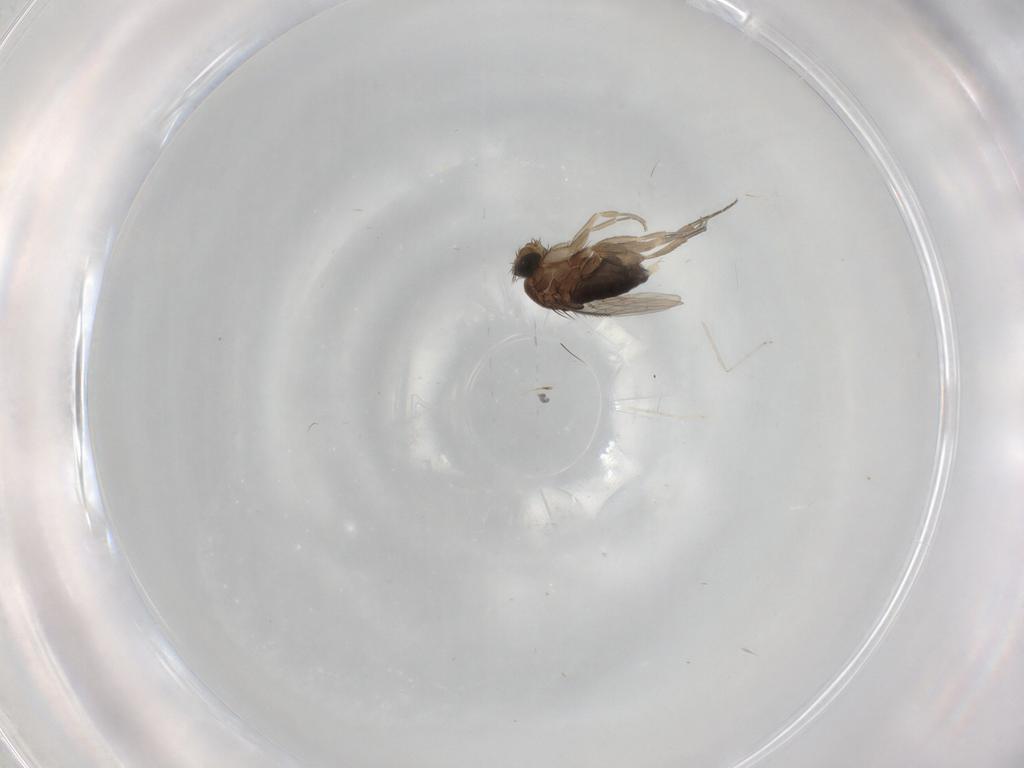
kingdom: Animalia
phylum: Arthropoda
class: Insecta
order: Diptera
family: Phoridae
